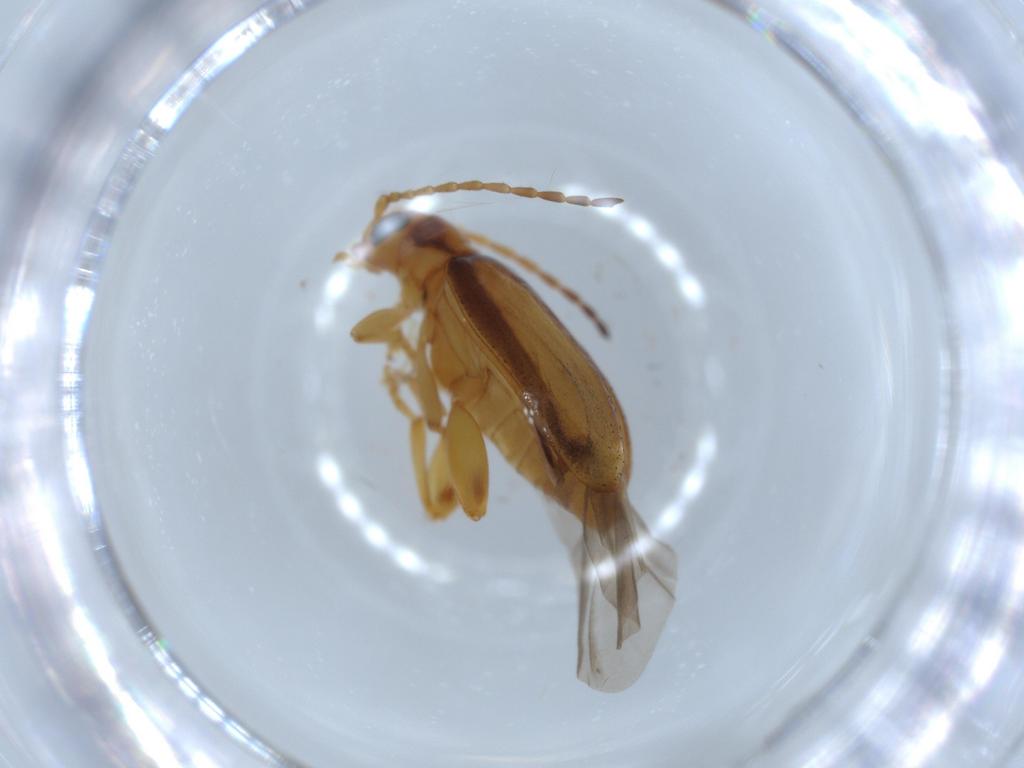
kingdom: Animalia
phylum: Arthropoda
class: Insecta
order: Coleoptera
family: Chrysomelidae
